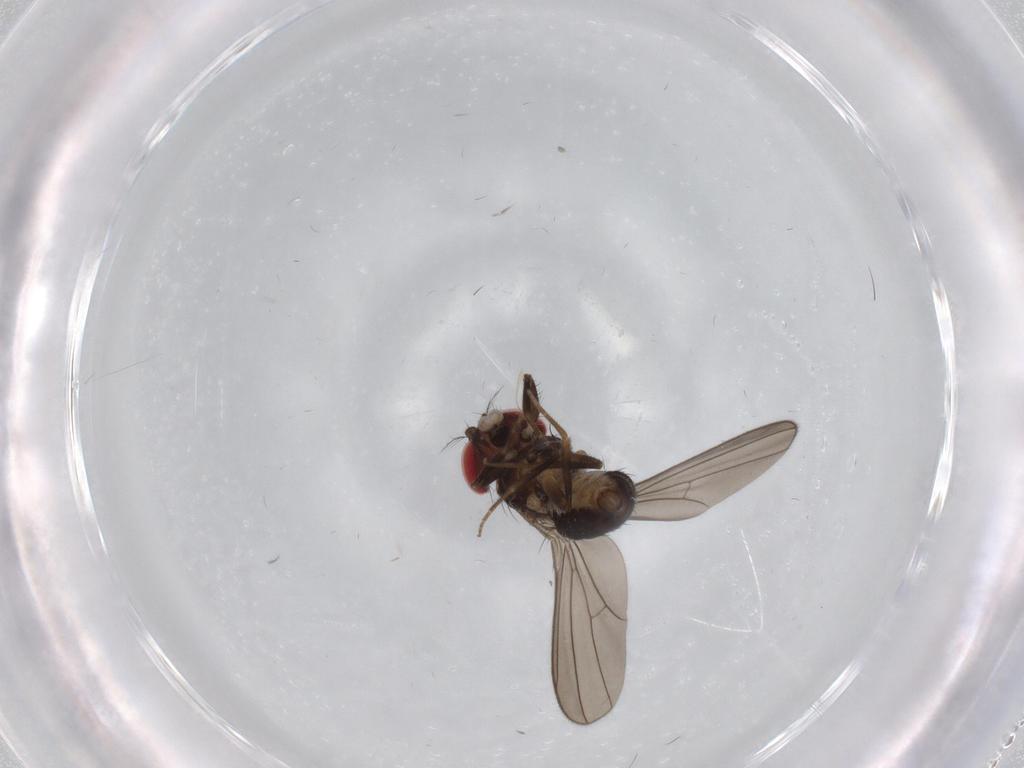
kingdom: Animalia
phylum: Arthropoda
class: Insecta
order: Diptera
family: Drosophilidae
